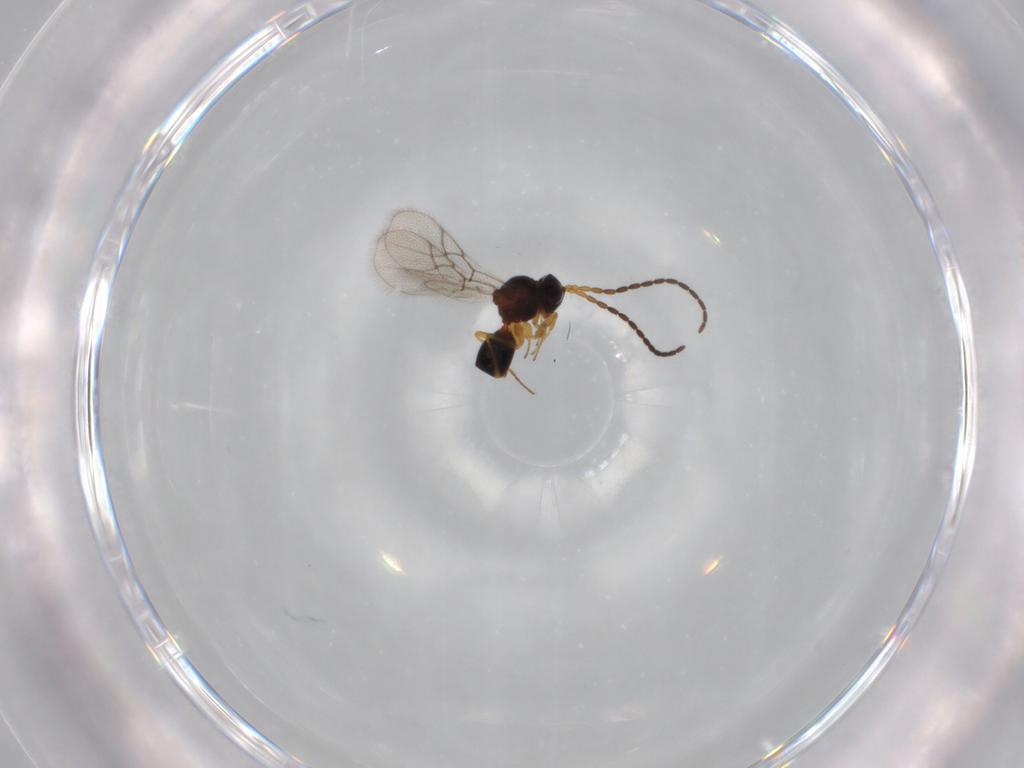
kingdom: Animalia
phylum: Arthropoda
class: Insecta
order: Hymenoptera
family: Figitidae
